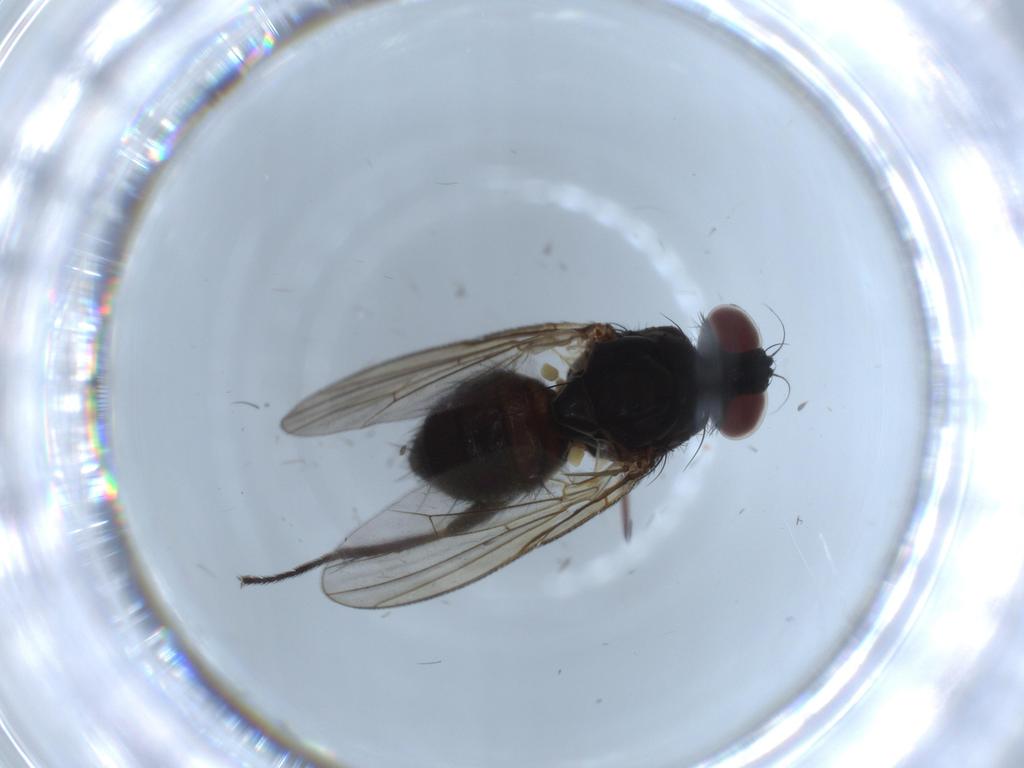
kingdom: Animalia
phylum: Arthropoda
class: Insecta
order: Diptera
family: Chironomidae
